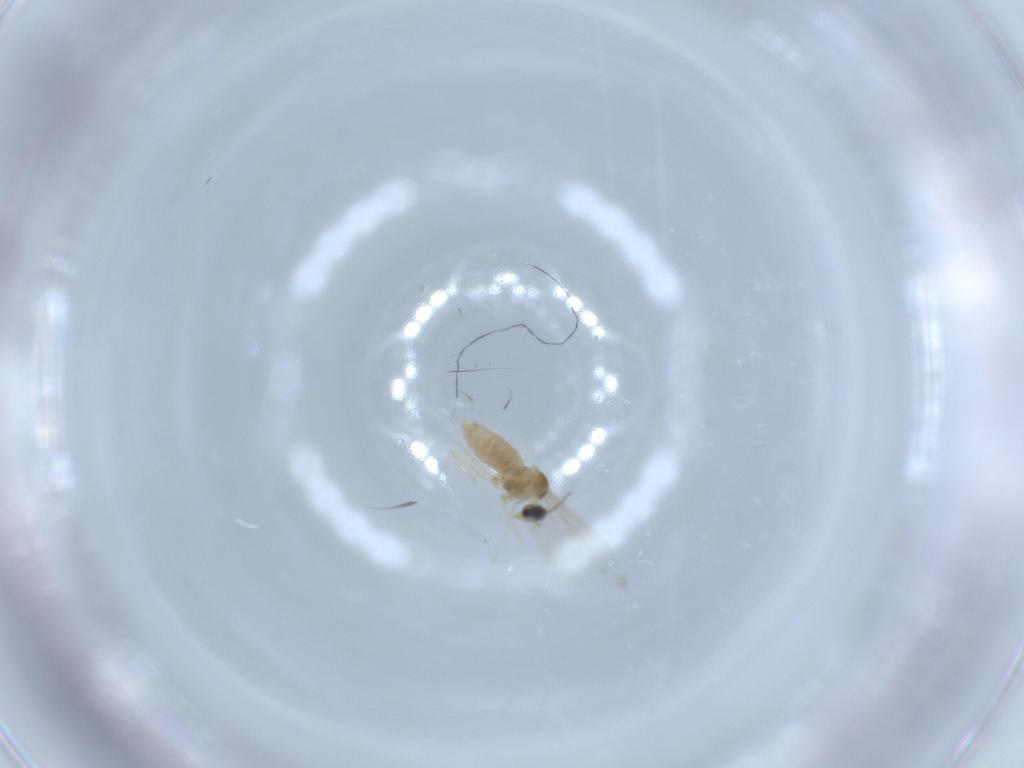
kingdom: Animalia
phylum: Arthropoda
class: Insecta
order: Diptera
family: Cecidomyiidae
